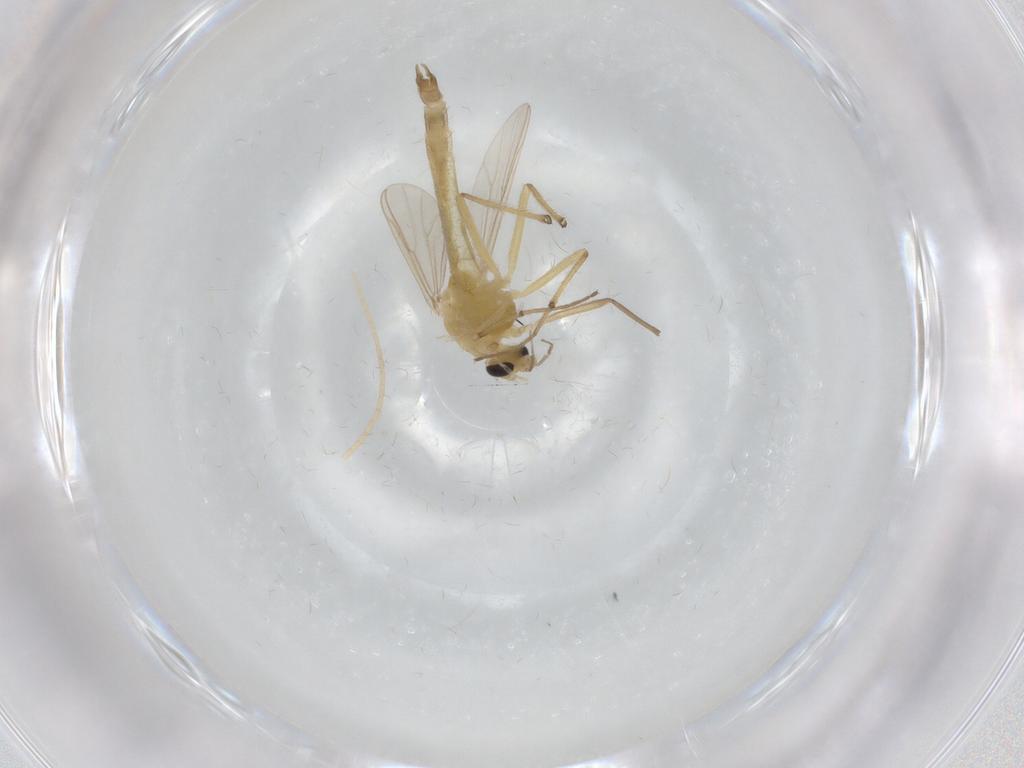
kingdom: Animalia
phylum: Arthropoda
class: Insecta
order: Diptera
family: Chironomidae
